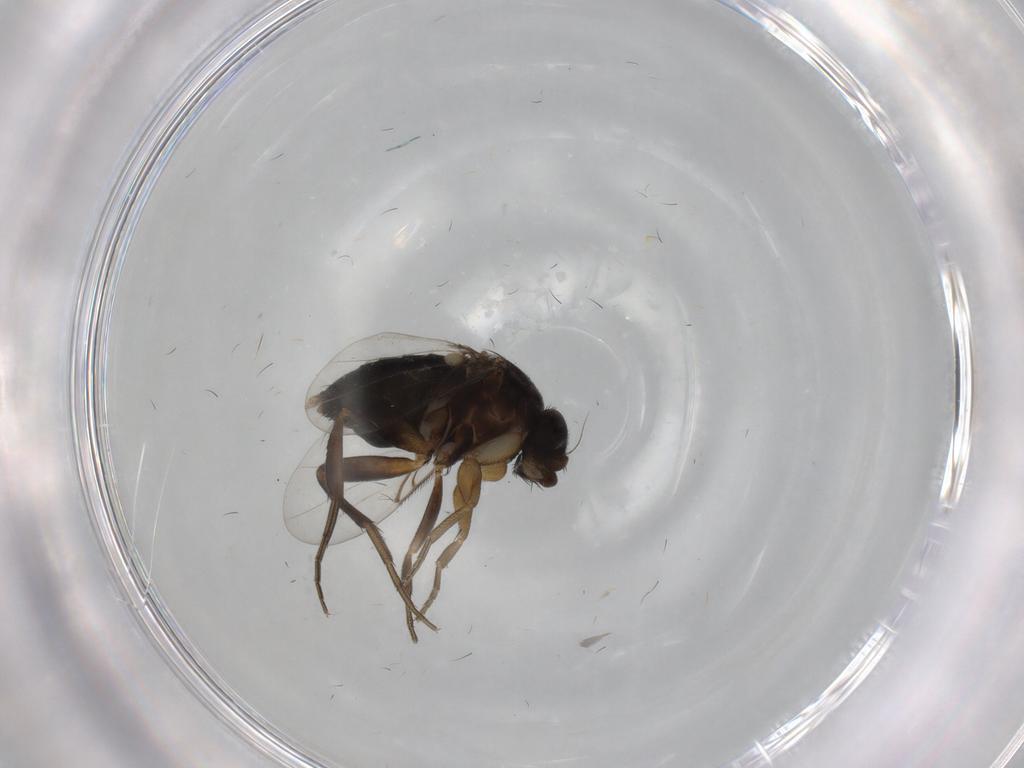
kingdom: Animalia
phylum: Arthropoda
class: Insecta
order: Diptera
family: Phoridae
